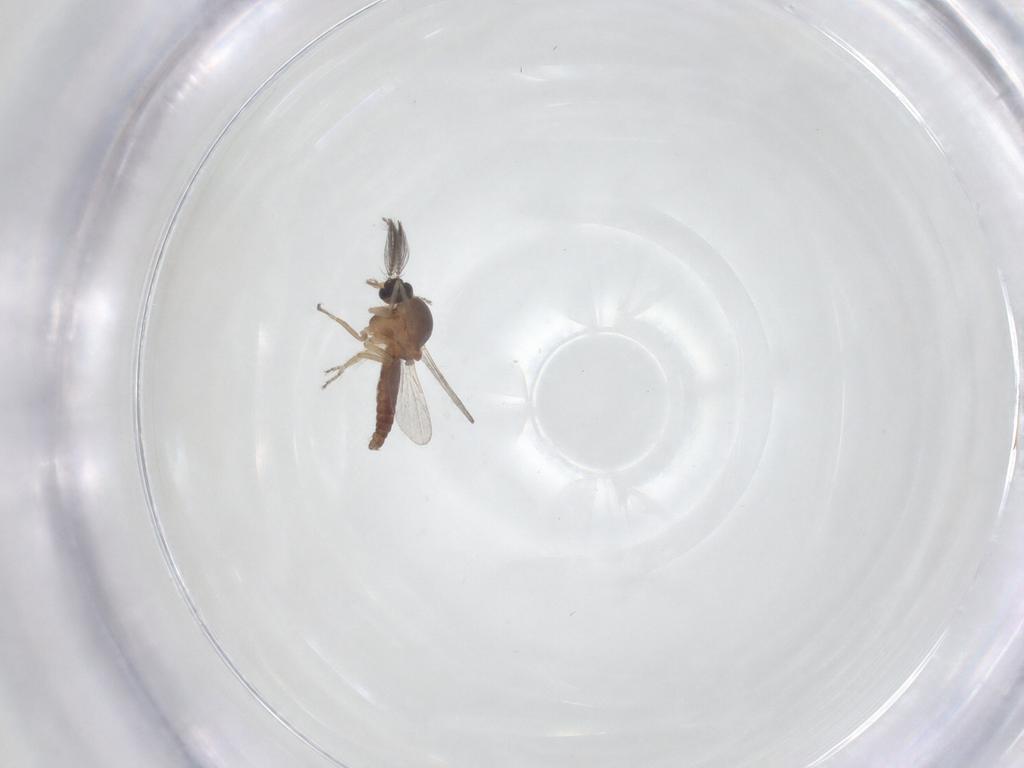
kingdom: Animalia
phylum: Arthropoda
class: Insecta
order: Diptera
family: Ceratopogonidae
